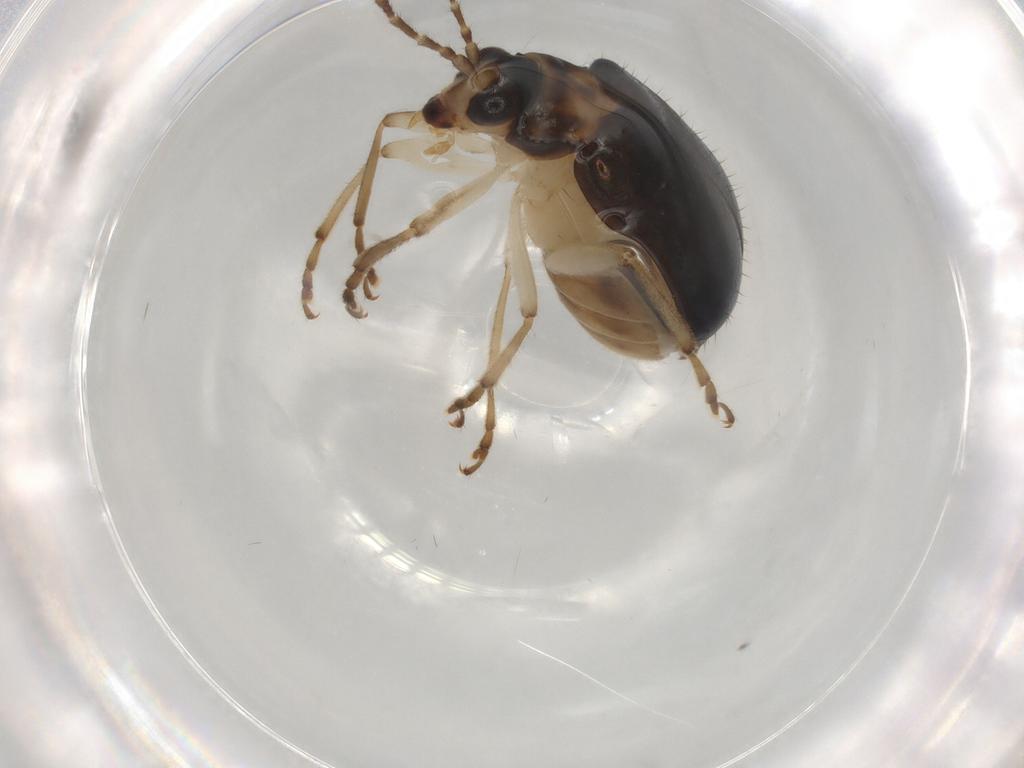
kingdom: Animalia
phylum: Arthropoda
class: Insecta
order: Coleoptera
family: Chrysomelidae
